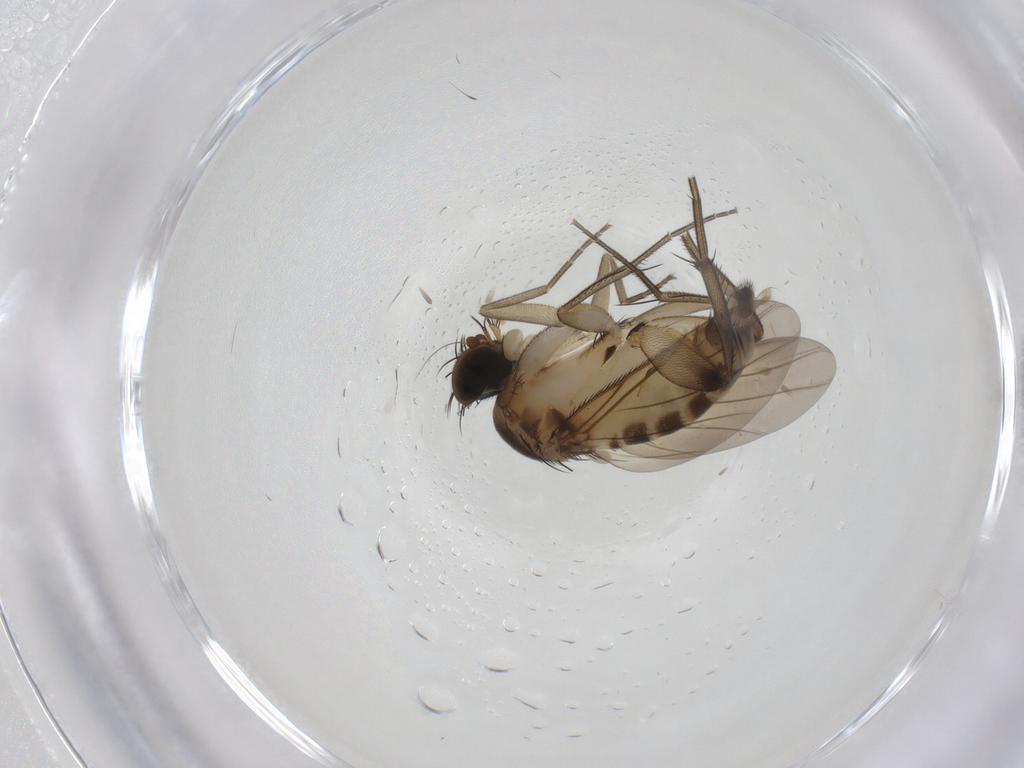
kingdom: Animalia
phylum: Arthropoda
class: Insecta
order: Diptera
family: Phoridae
